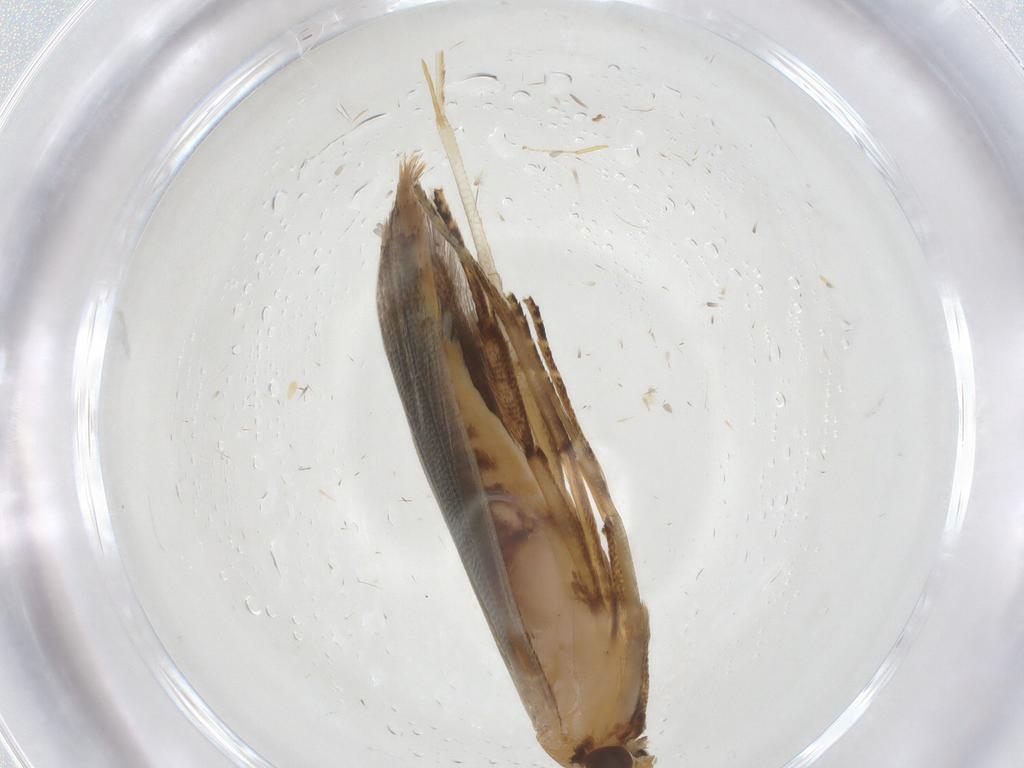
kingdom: Animalia
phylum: Arthropoda
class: Insecta
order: Lepidoptera
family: Gelechiidae
